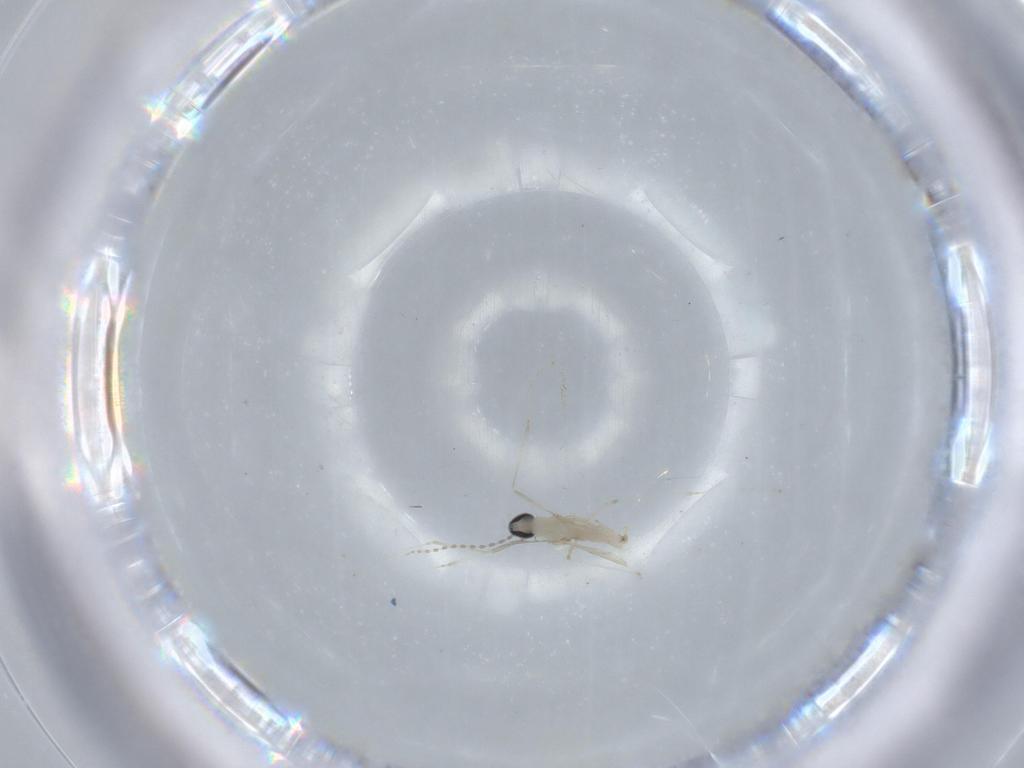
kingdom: Animalia
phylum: Arthropoda
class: Insecta
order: Diptera
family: Cecidomyiidae
